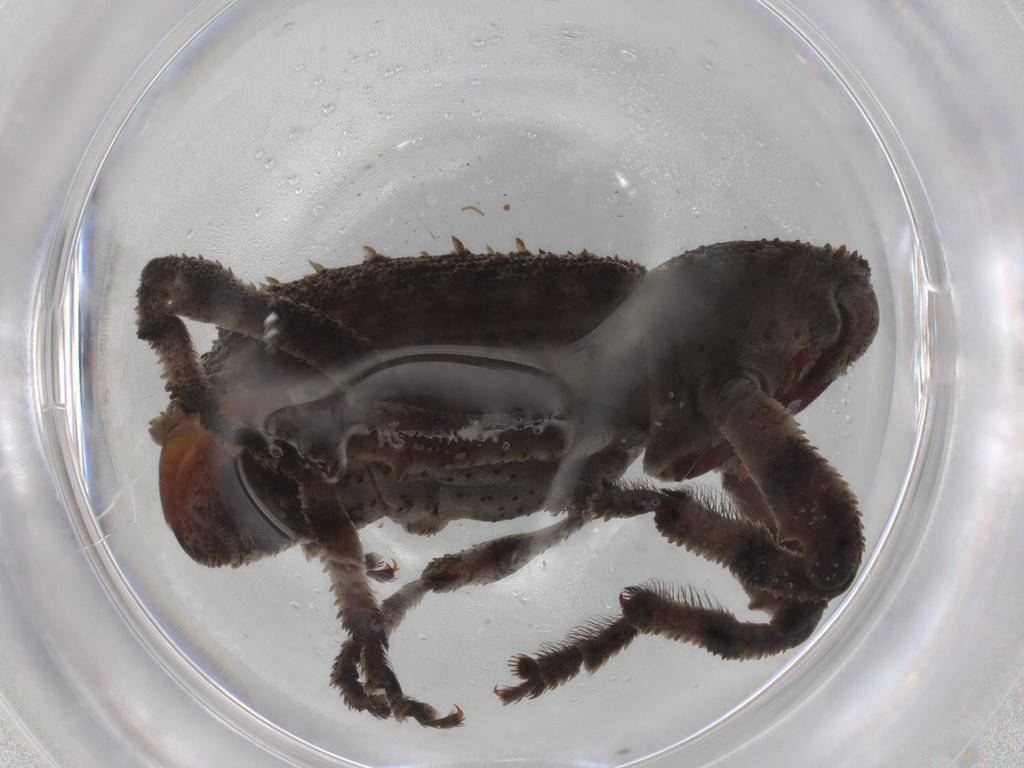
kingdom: Animalia
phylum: Arthropoda
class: Insecta
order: Coleoptera
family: Curculionidae
